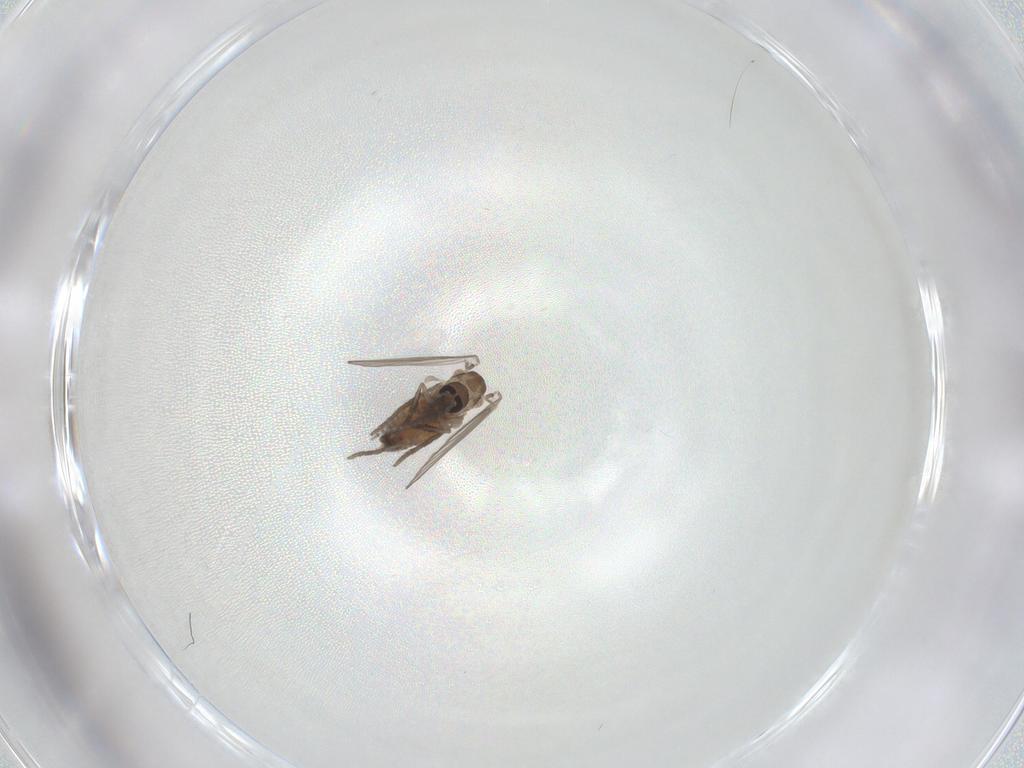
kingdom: Animalia
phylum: Arthropoda
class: Insecta
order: Diptera
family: Psychodidae
